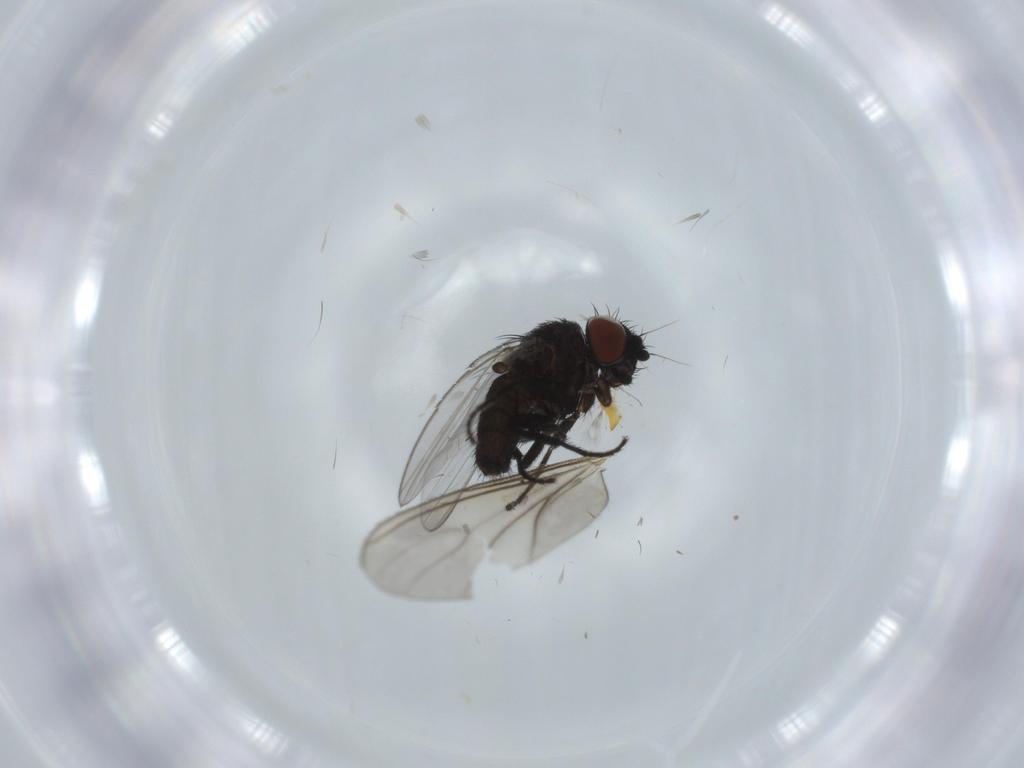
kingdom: Animalia
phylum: Arthropoda
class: Insecta
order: Diptera
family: Milichiidae
